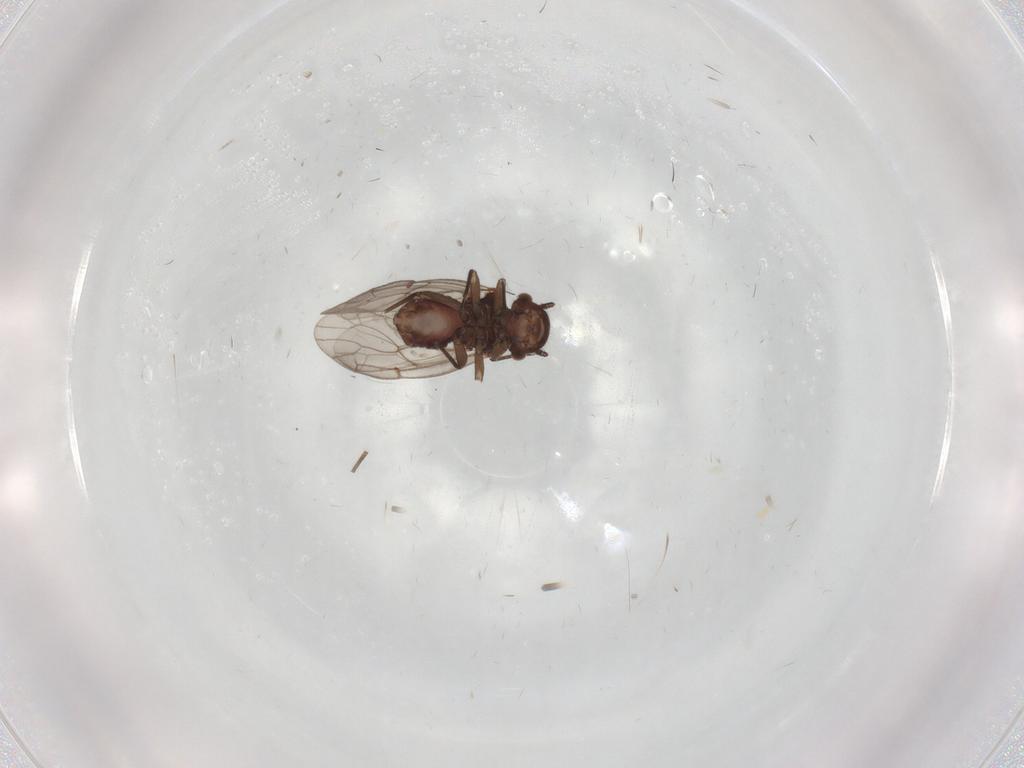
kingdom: Animalia
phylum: Arthropoda
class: Insecta
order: Psocodea
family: Ectopsocidae
